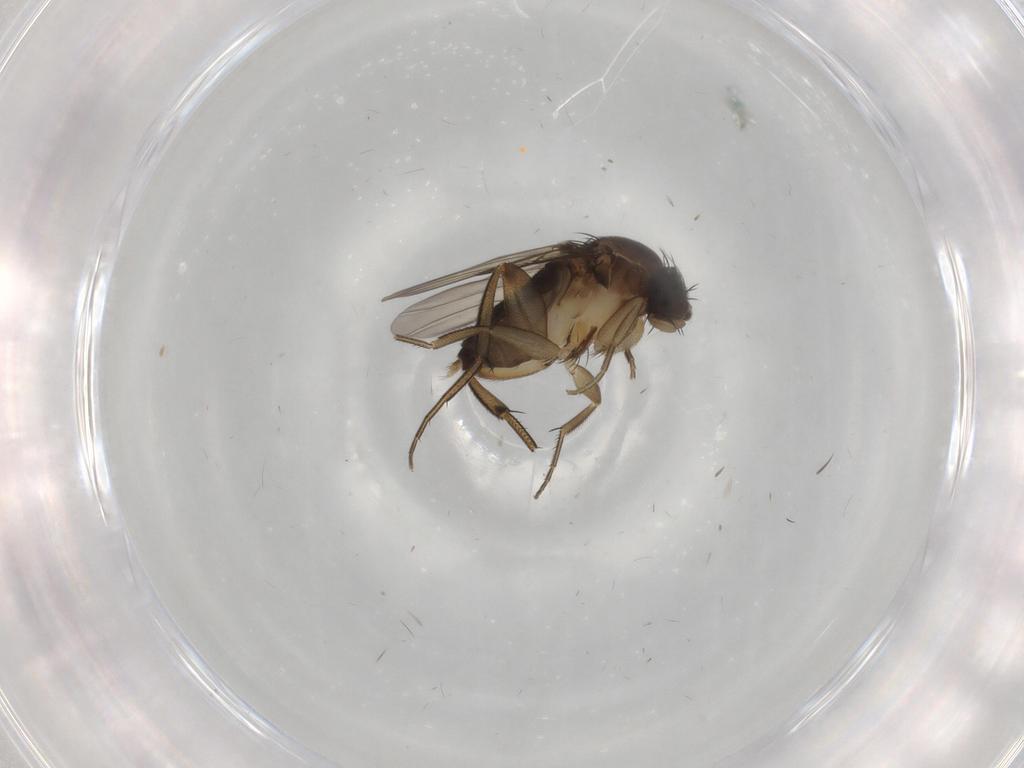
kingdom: Animalia
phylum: Arthropoda
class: Insecta
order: Diptera
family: Phoridae
